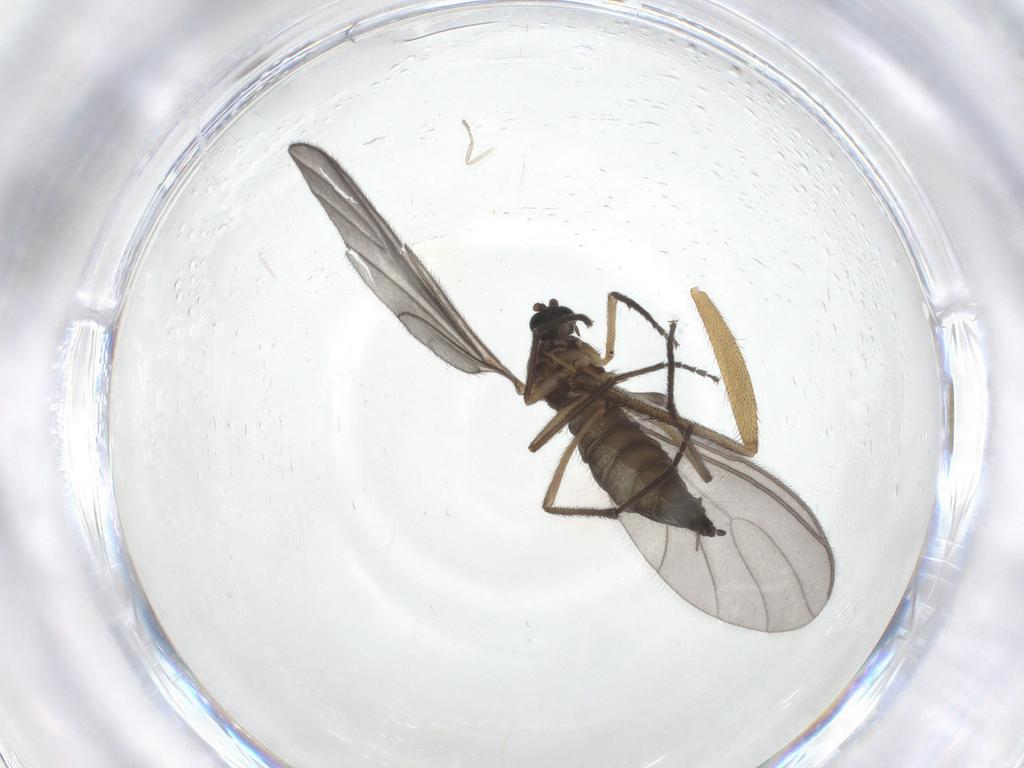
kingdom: Animalia
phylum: Arthropoda
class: Insecta
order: Diptera
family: Sciaridae
